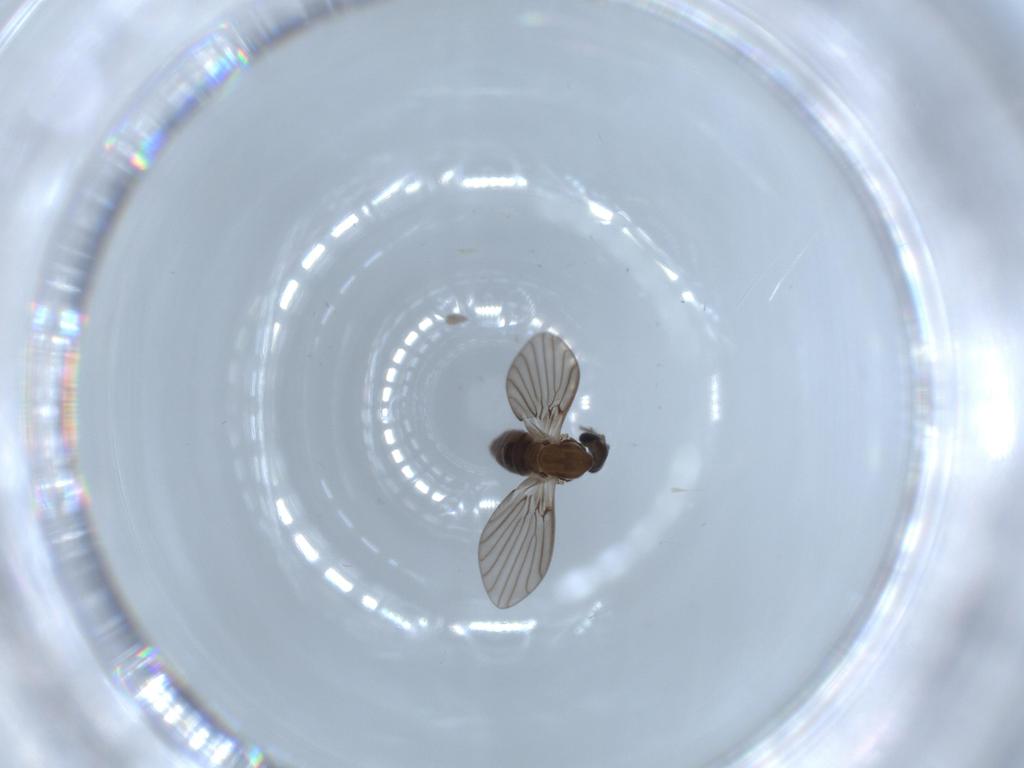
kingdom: Animalia
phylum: Arthropoda
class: Insecta
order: Diptera
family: Psychodidae
